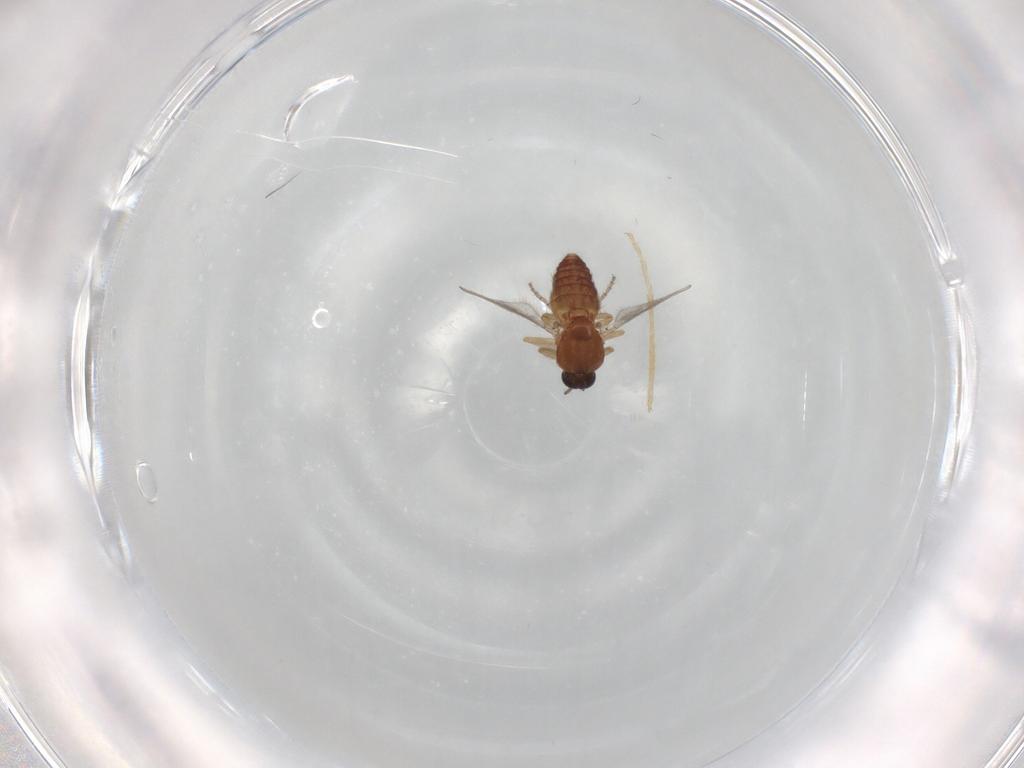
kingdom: Animalia
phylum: Arthropoda
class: Insecta
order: Diptera
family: Ceratopogonidae
